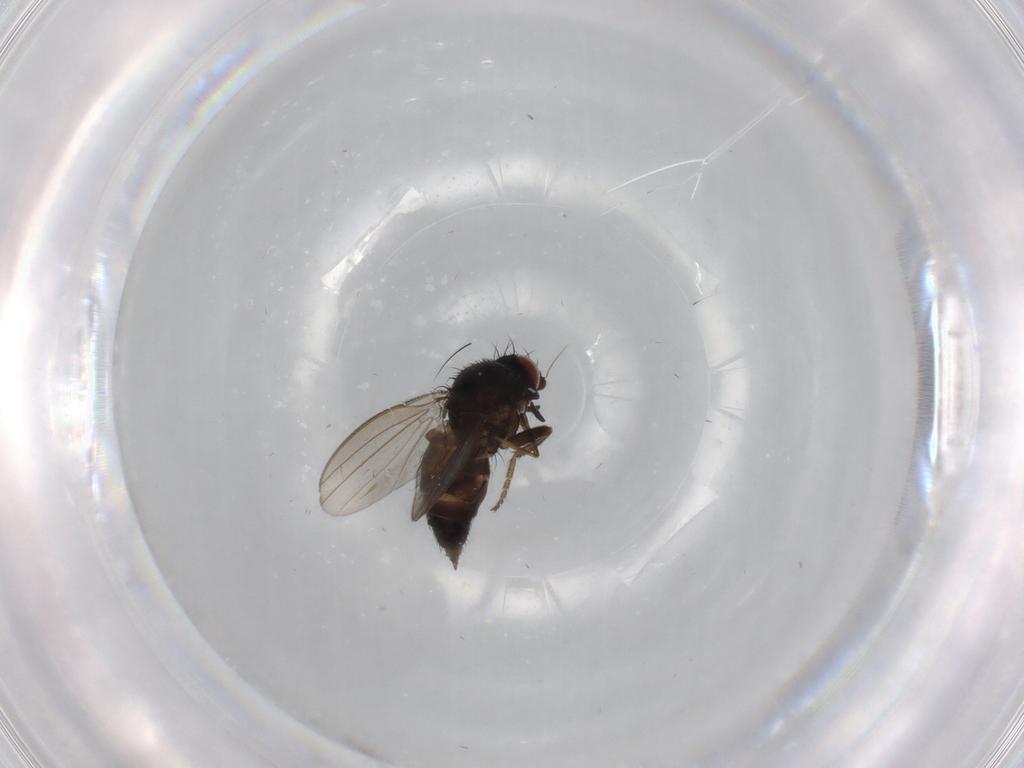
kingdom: Animalia
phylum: Arthropoda
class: Insecta
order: Diptera
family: Milichiidae
